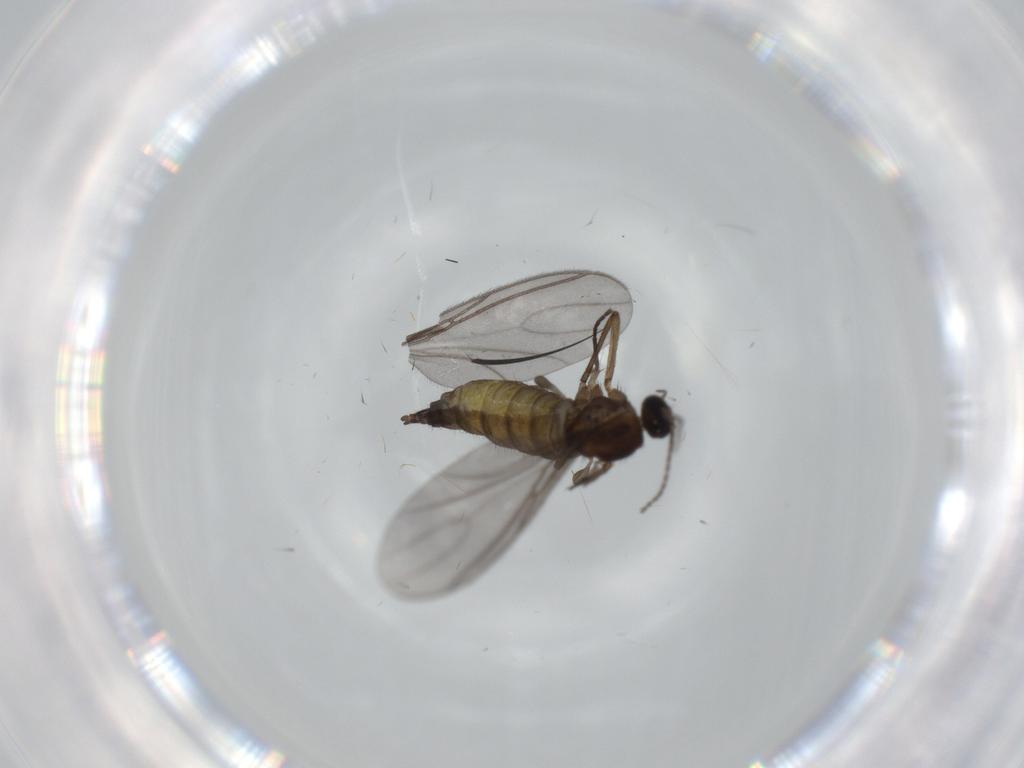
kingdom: Animalia
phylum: Arthropoda
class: Insecta
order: Diptera
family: Sciaridae
